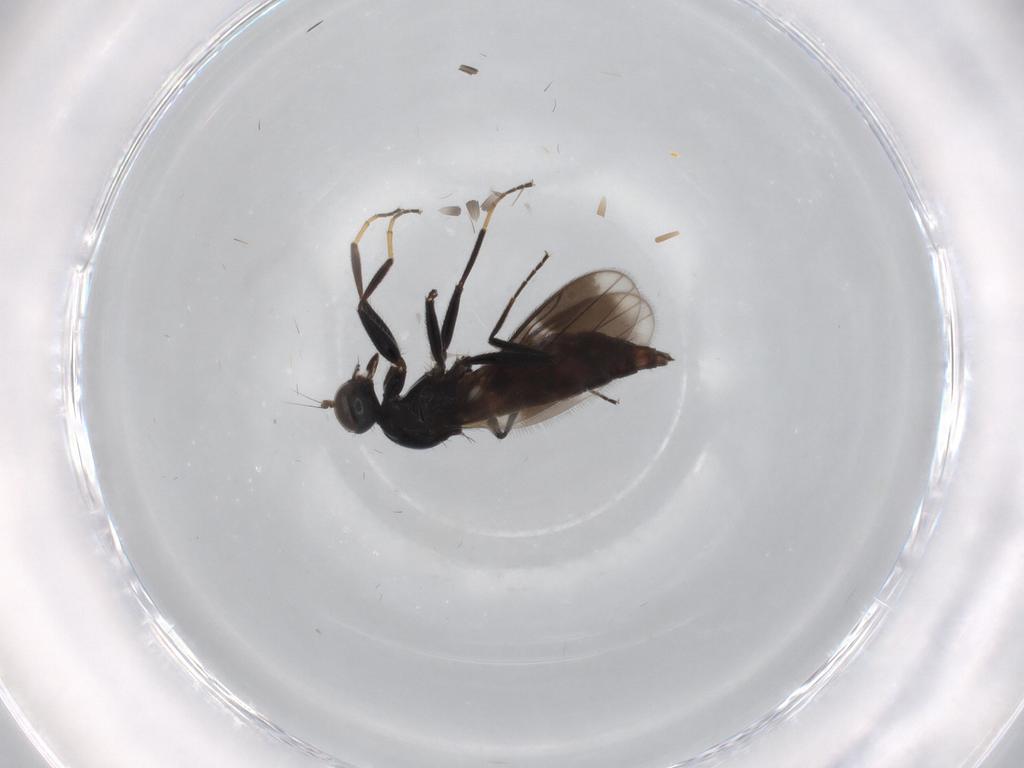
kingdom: Animalia
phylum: Arthropoda
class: Insecta
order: Diptera
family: Hybotidae
